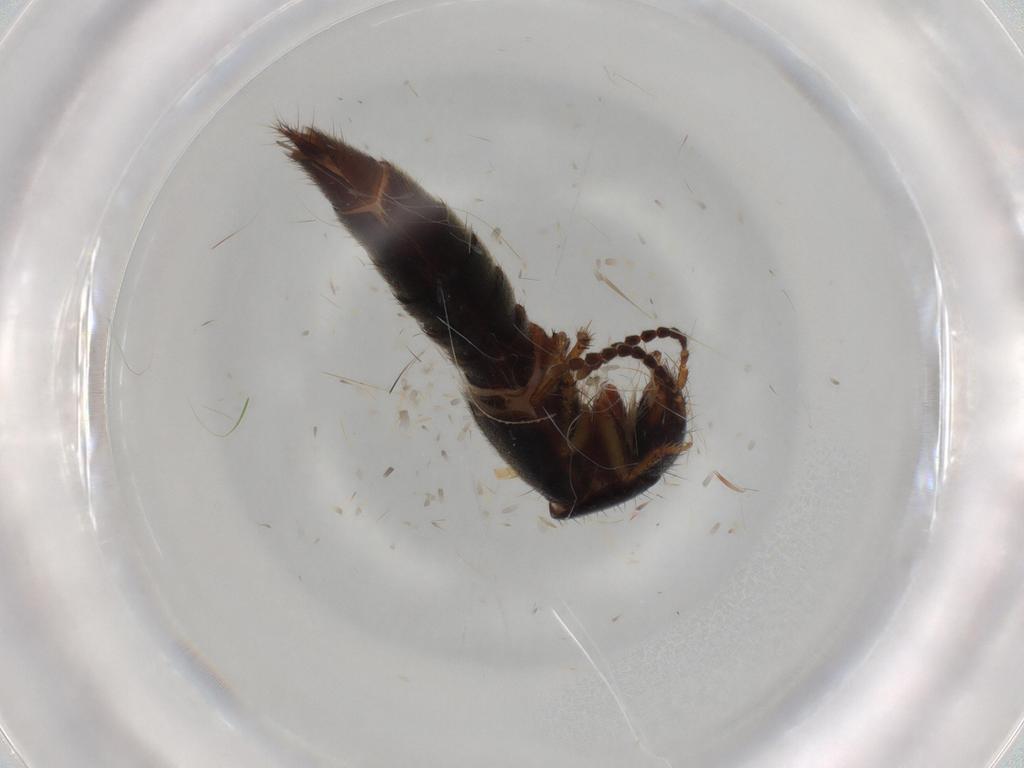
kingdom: Animalia
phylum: Arthropoda
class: Insecta
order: Coleoptera
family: Staphylinidae
